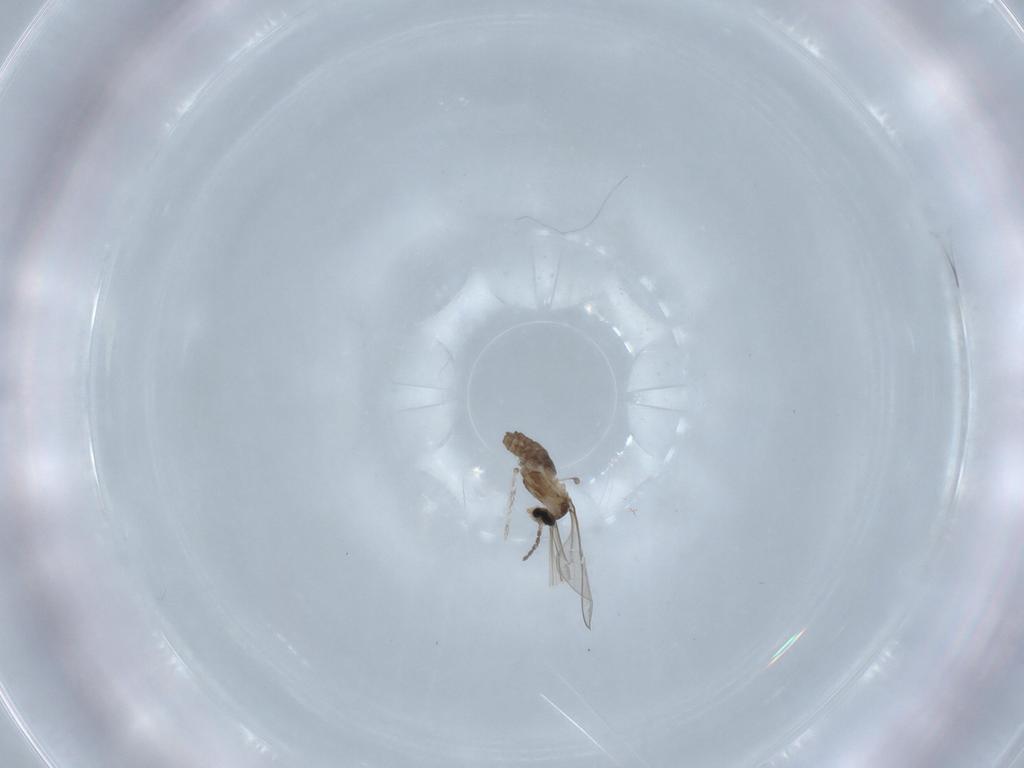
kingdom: Animalia
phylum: Arthropoda
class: Insecta
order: Diptera
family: Cecidomyiidae
